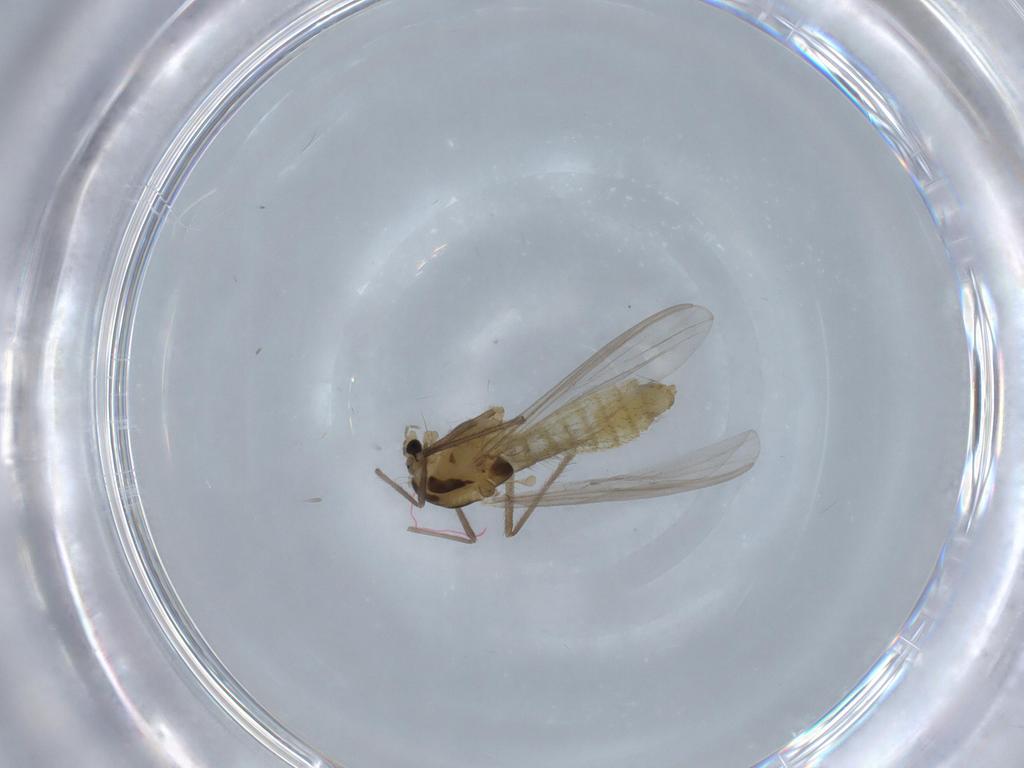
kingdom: Animalia
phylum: Arthropoda
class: Insecta
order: Diptera
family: Chironomidae
